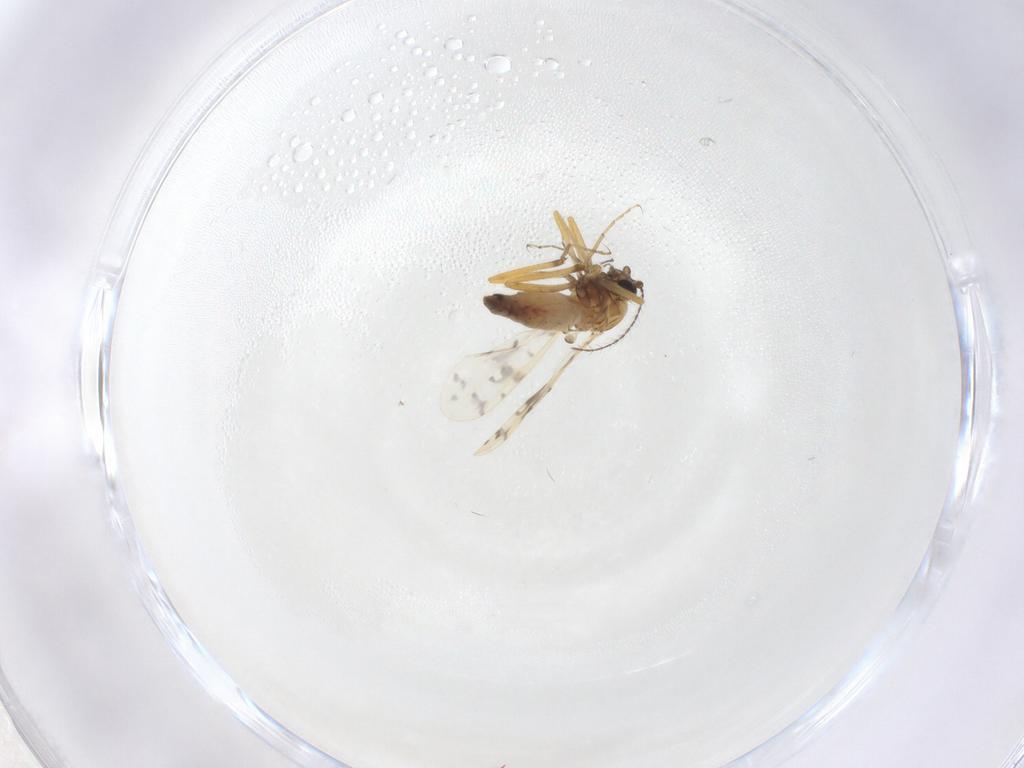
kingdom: Animalia
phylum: Arthropoda
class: Insecta
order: Diptera
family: Ceratopogonidae
